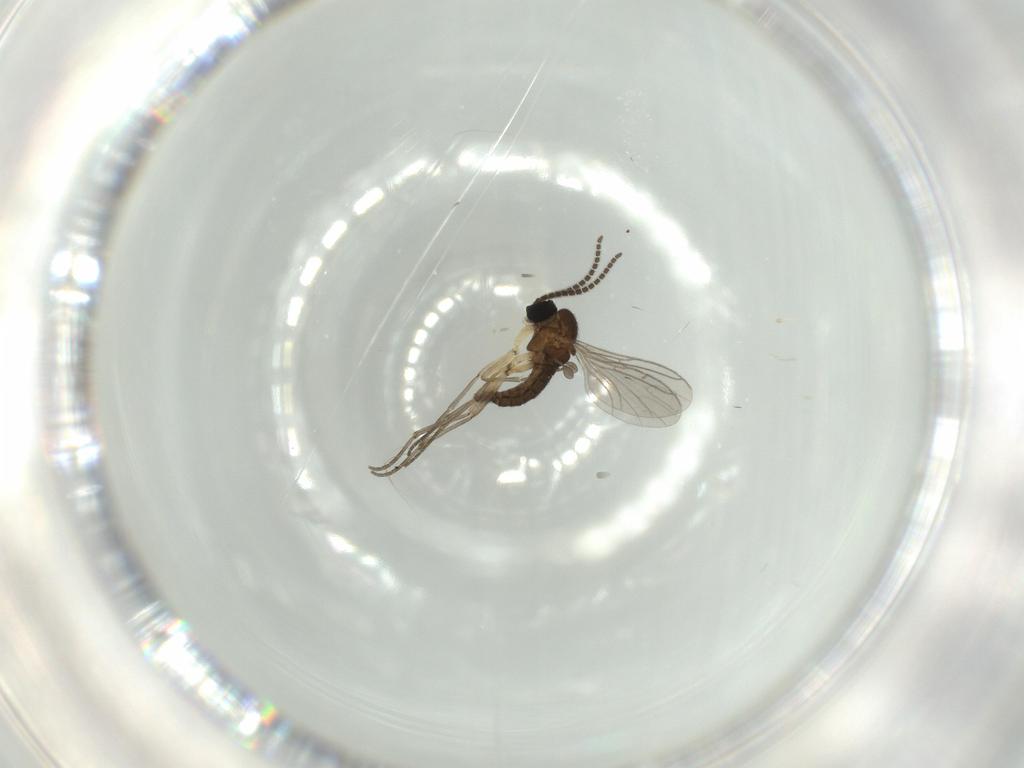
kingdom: Animalia
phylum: Arthropoda
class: Insecta
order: Diptera
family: Sciaridae
